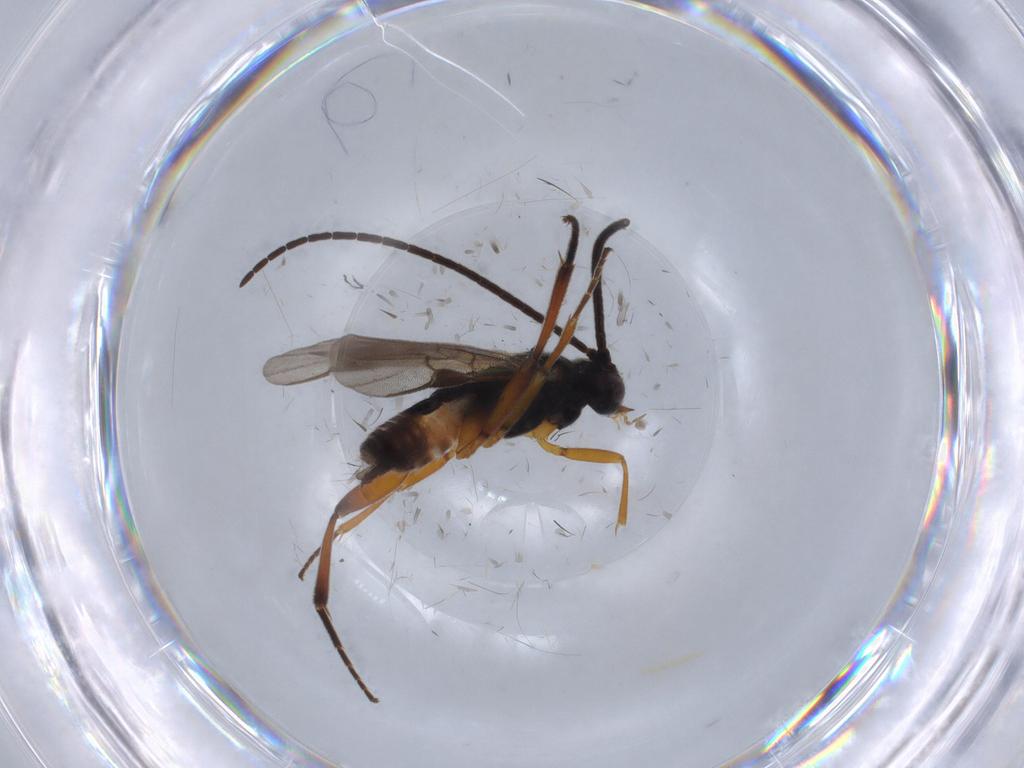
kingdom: Animalia
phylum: Arthropoda
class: Insecta
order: Hymenoptera
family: Braconidae
